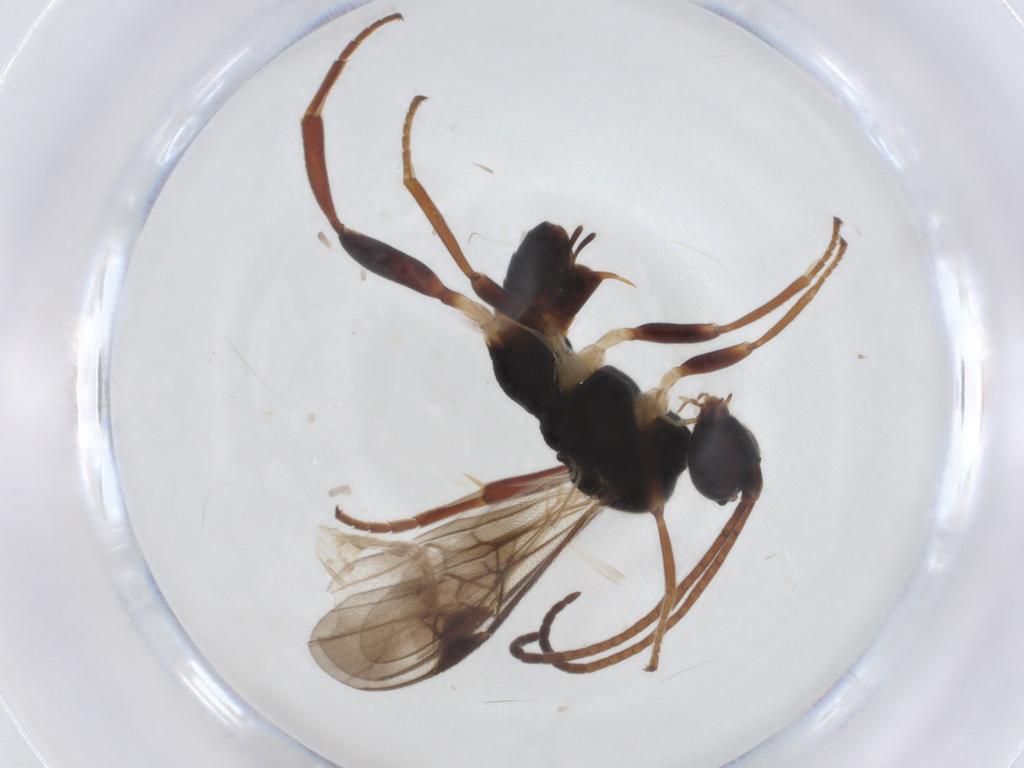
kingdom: Animalia
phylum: Arthropoda
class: Insecta
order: Hymenoptera
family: Braconidae
